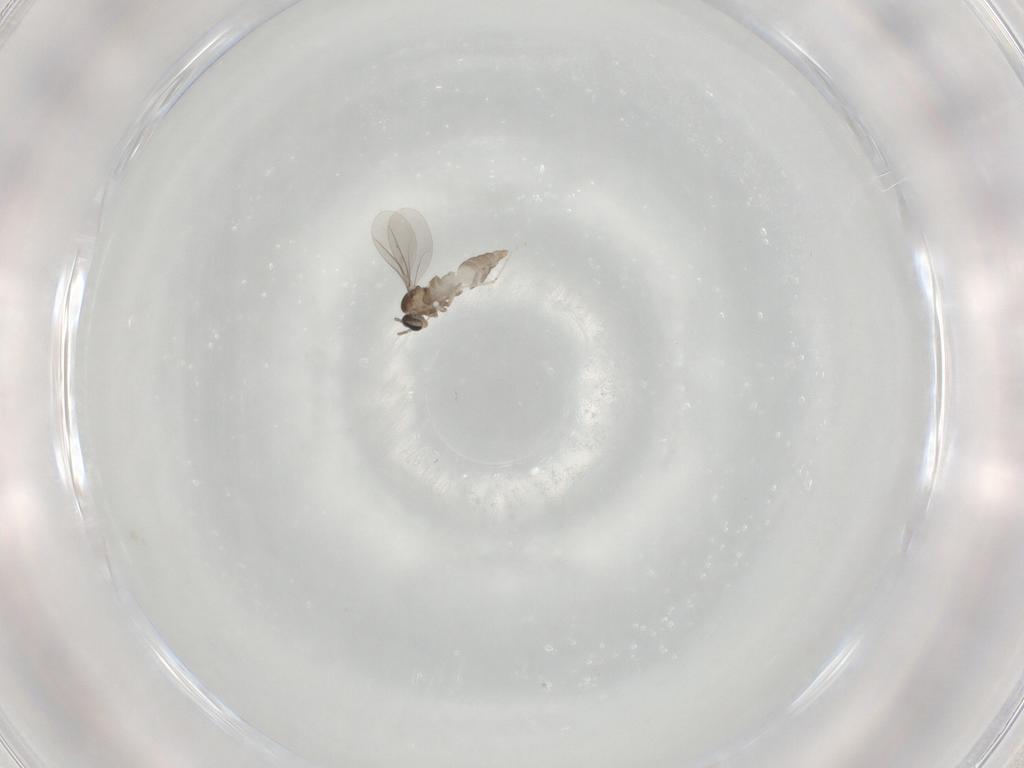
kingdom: Animalia
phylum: Arthropoda
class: Insecta
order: Diptera
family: Cecidomyiidae
